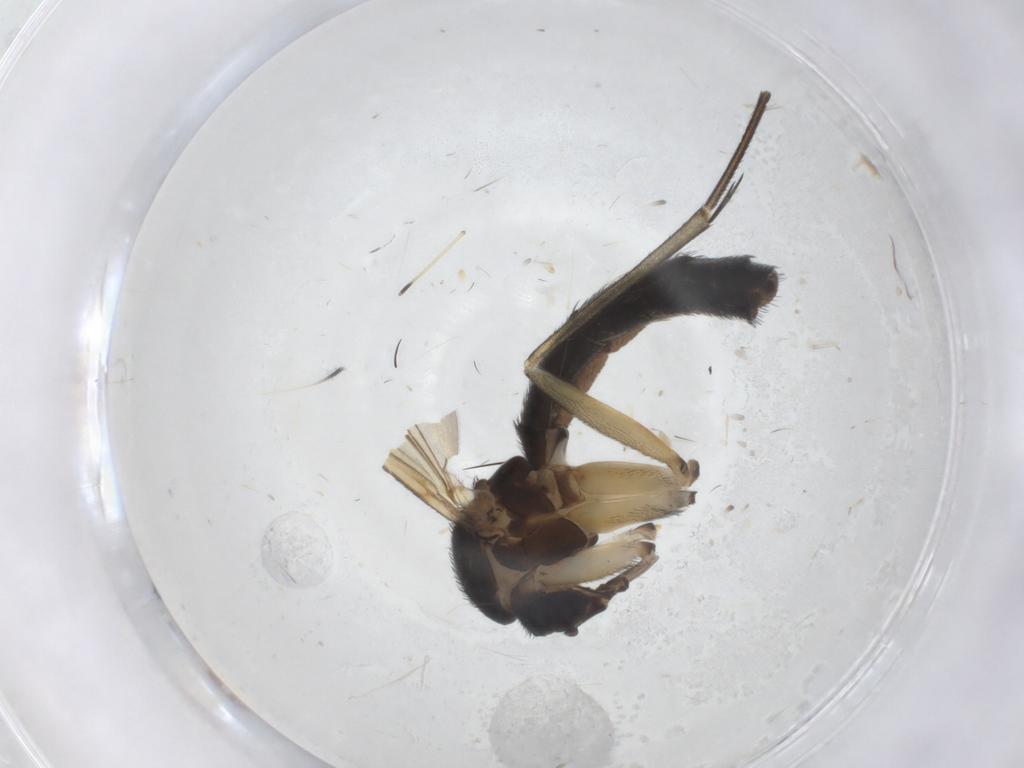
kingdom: Animalia
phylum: Arthropoda
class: Insecta
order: Diptera
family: Keroplatidae
